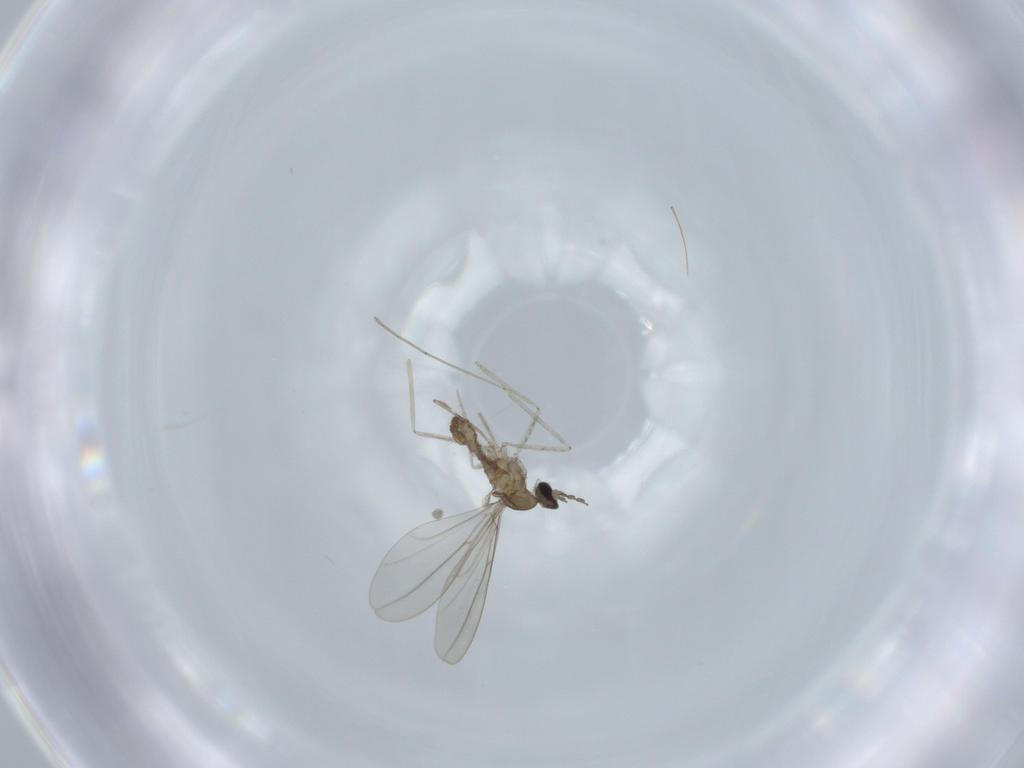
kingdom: Animalia
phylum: Arthropoda
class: Insecta
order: Diptera
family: Cecidomyiidae
